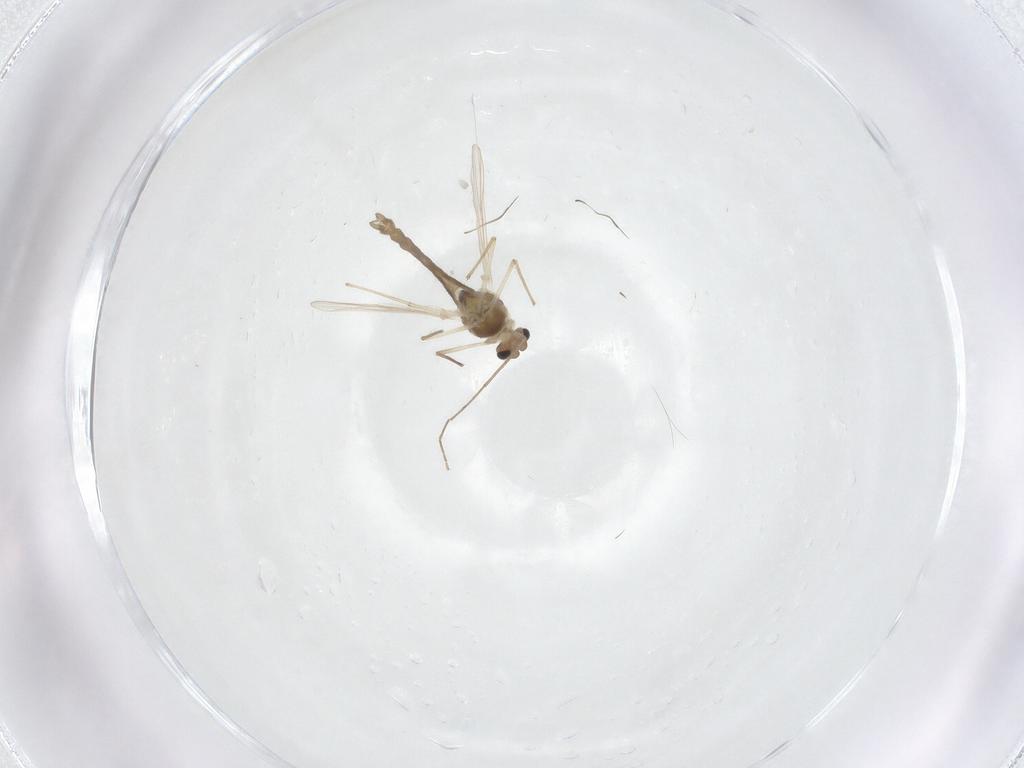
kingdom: Animalia
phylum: Arthropoda
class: Insecta
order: Diptera
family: Chironomidae
